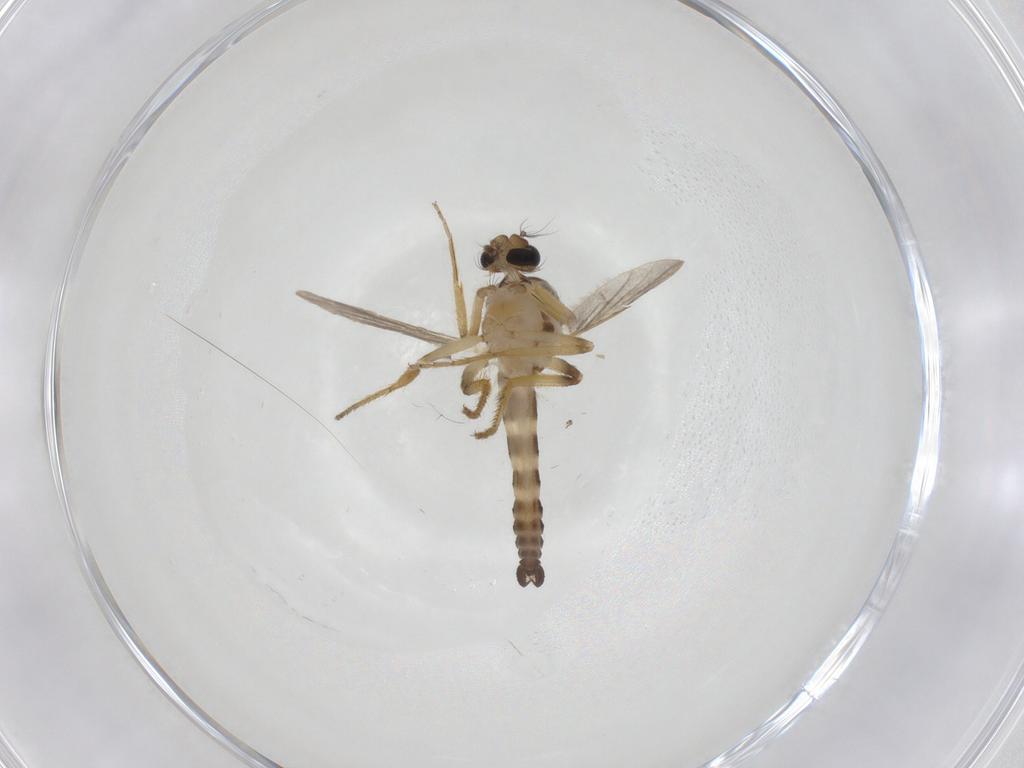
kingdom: Animalia
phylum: Arthropoda
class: Insecta
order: Diptera
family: Ceratopogonidae
